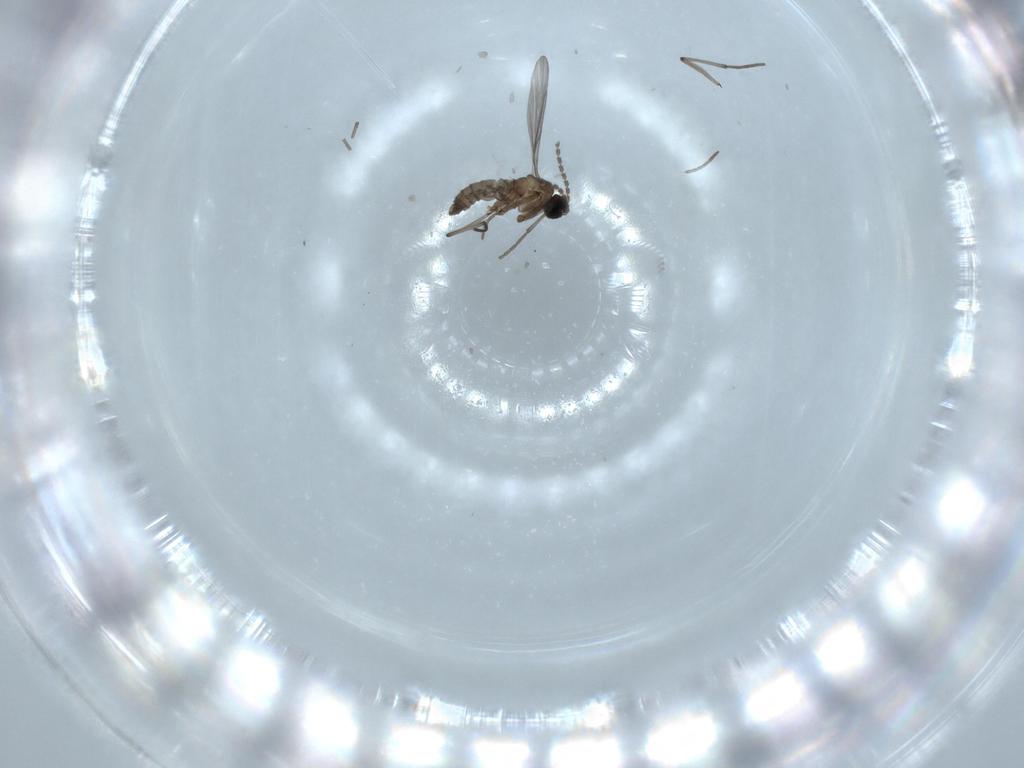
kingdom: Animalia
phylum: Arthropoda
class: Insecta
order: Diptera
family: Sciaridae
